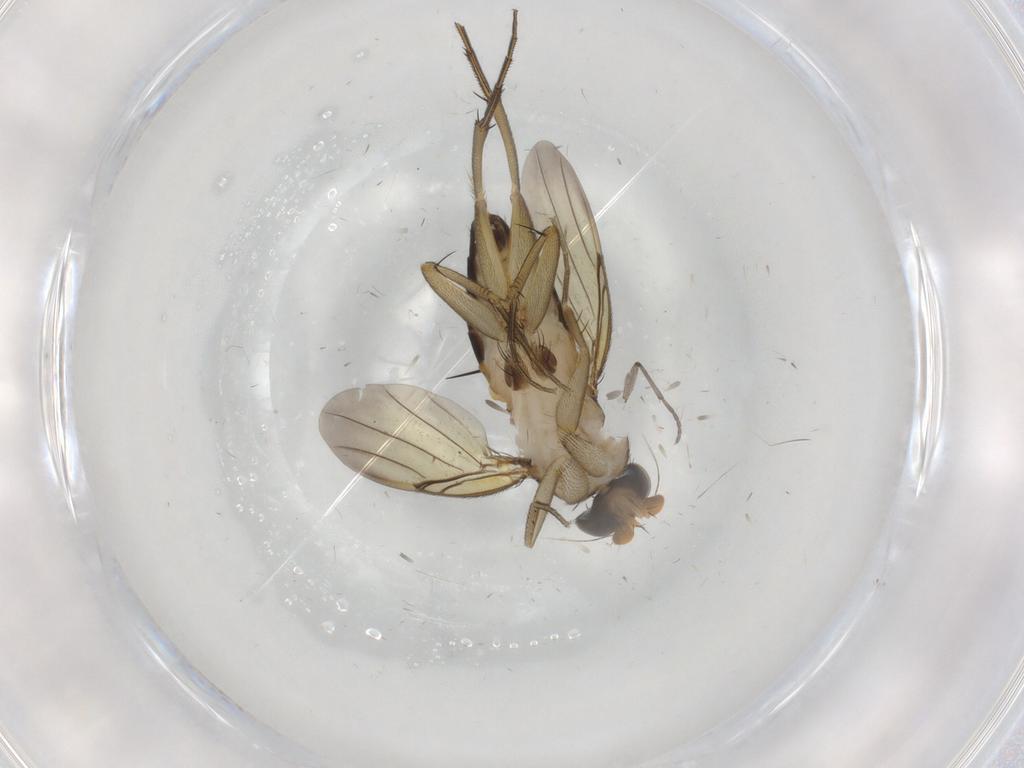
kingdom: Animalia
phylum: Arthropoda
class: Insecta
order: Diptera
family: Phoridae
